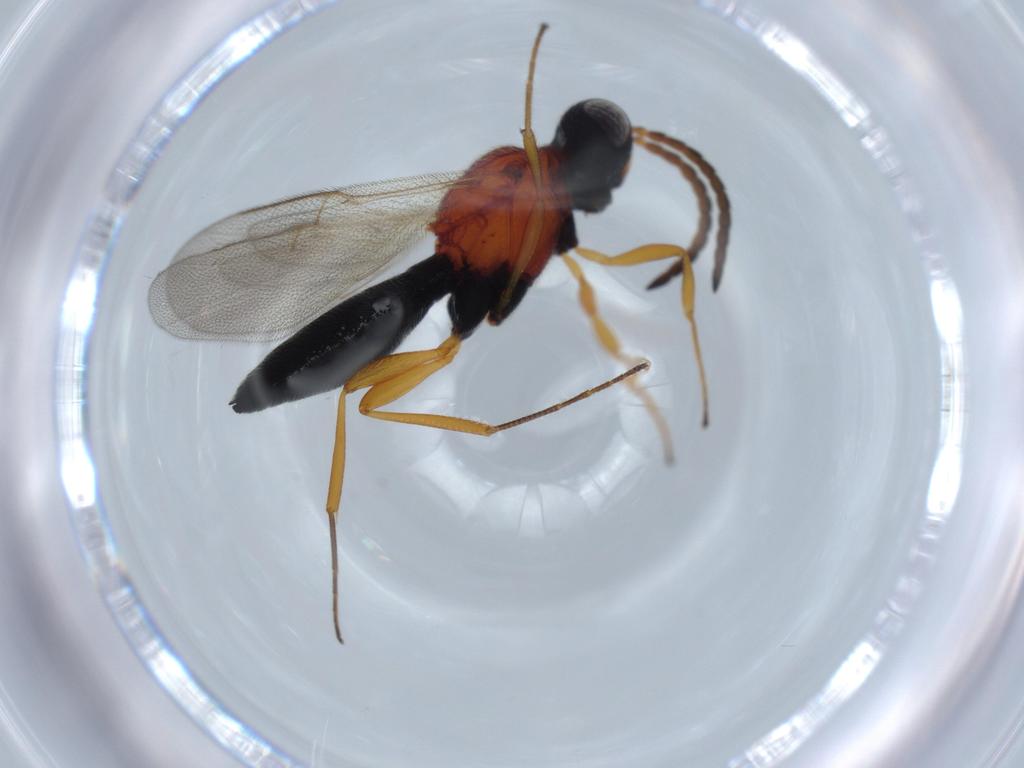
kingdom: Animalia
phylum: Arthropoda
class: Insecta
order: Hymenoptera
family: Scelionidae
